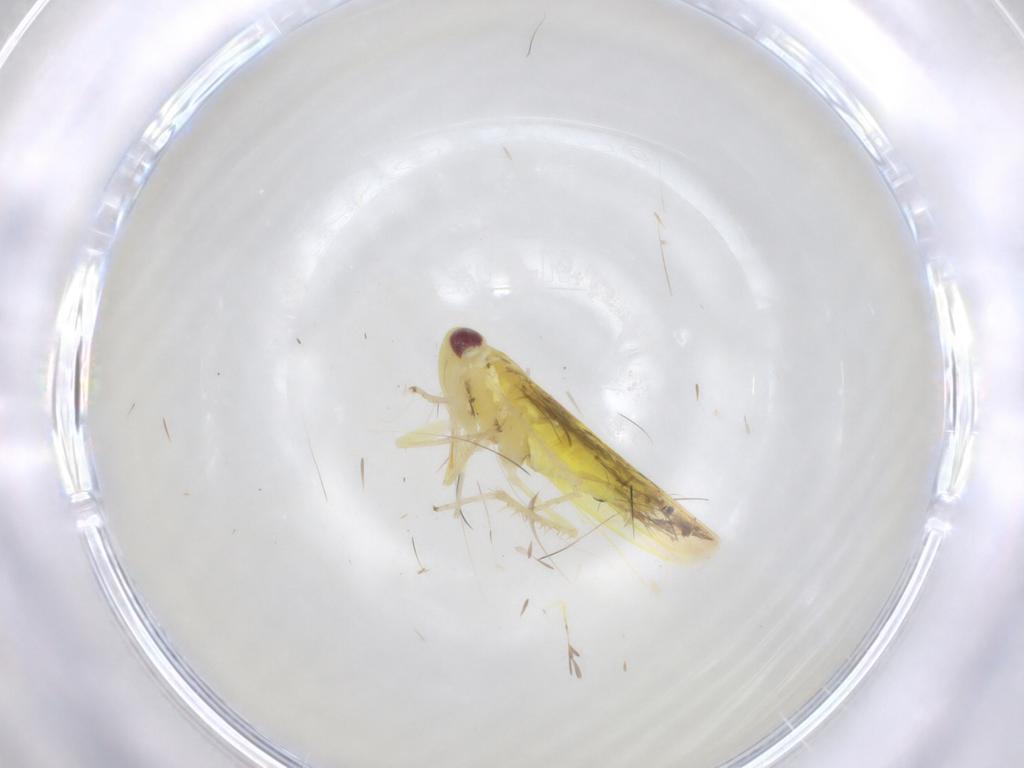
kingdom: Animalia
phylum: Arthropoda
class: Insecta
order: Hemiptera
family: Cicadellidae
